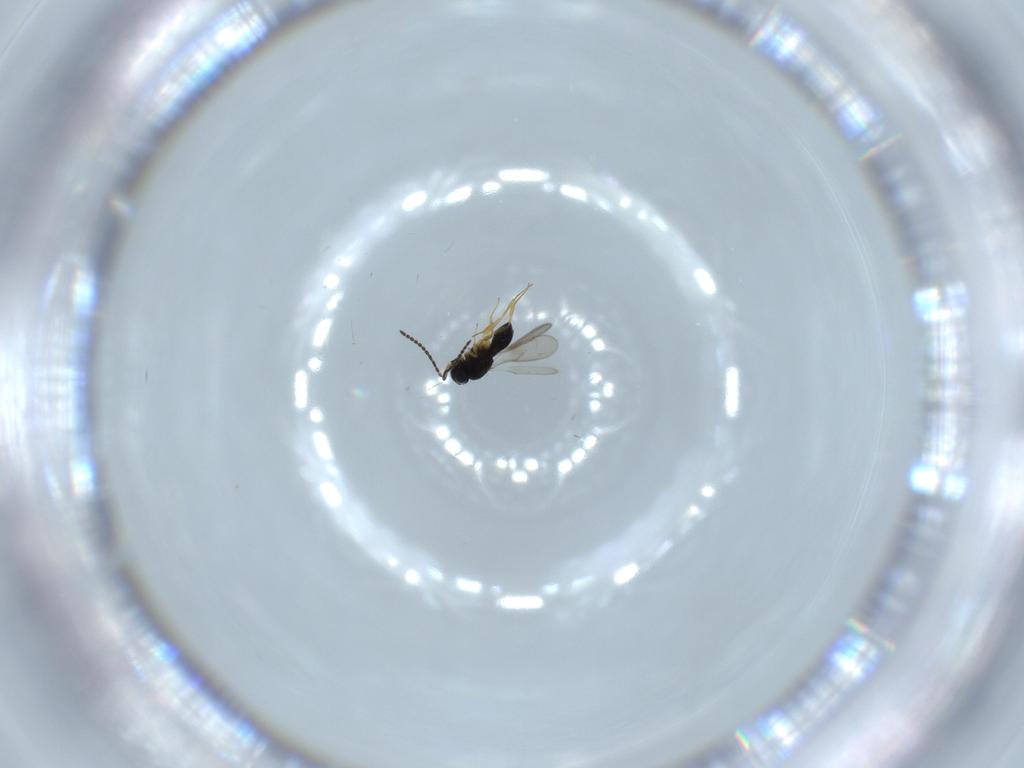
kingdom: Animalia
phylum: Arthropoda
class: Insecta
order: Hymenoptera
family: Scelionidae
